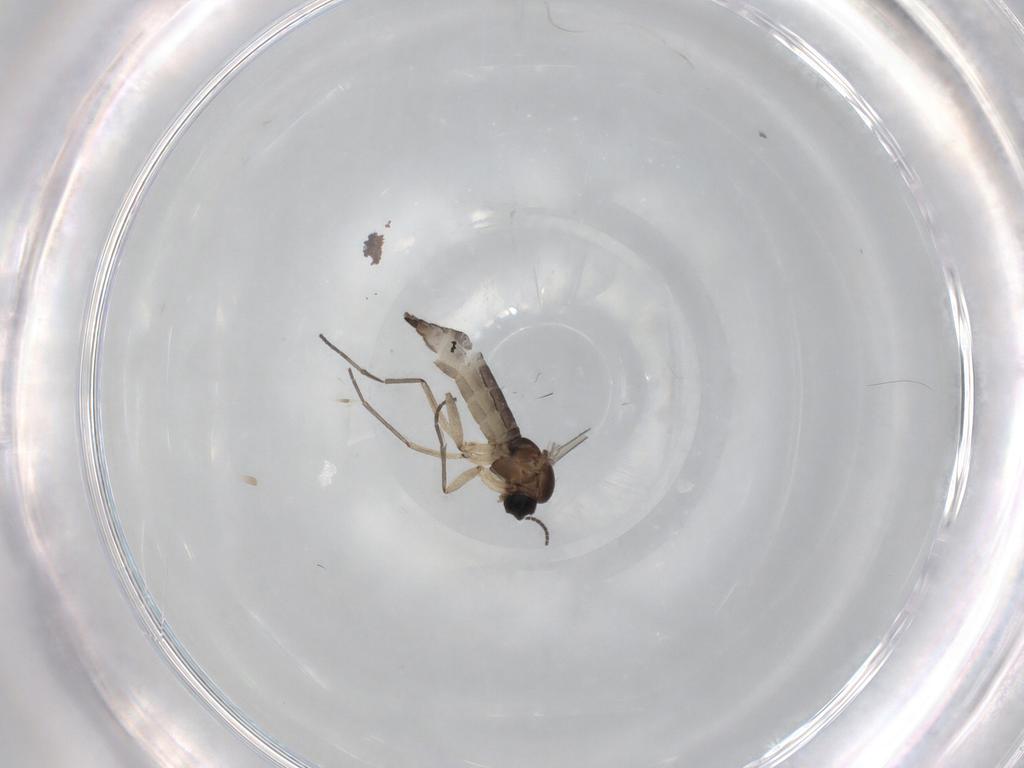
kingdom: Animalia
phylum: Arthropoda
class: Insecta
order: Diptera
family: Sciaridae
